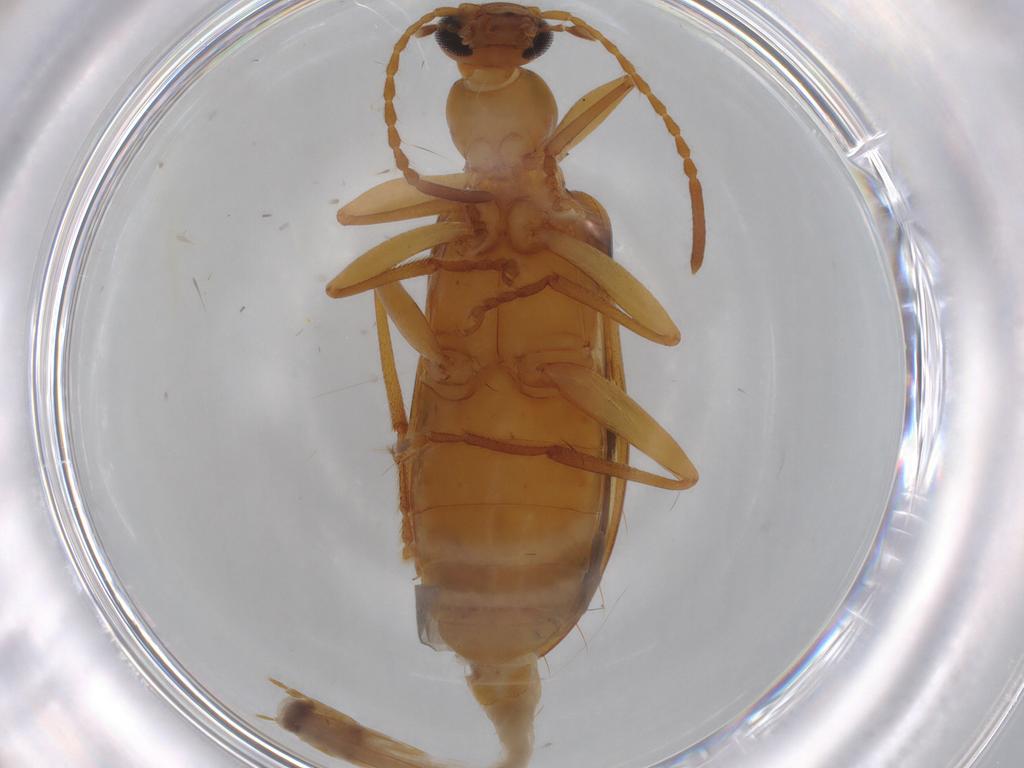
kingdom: Animalia
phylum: Arthropoda
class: Insecta
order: Coleoptera
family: Tenebrionidae
